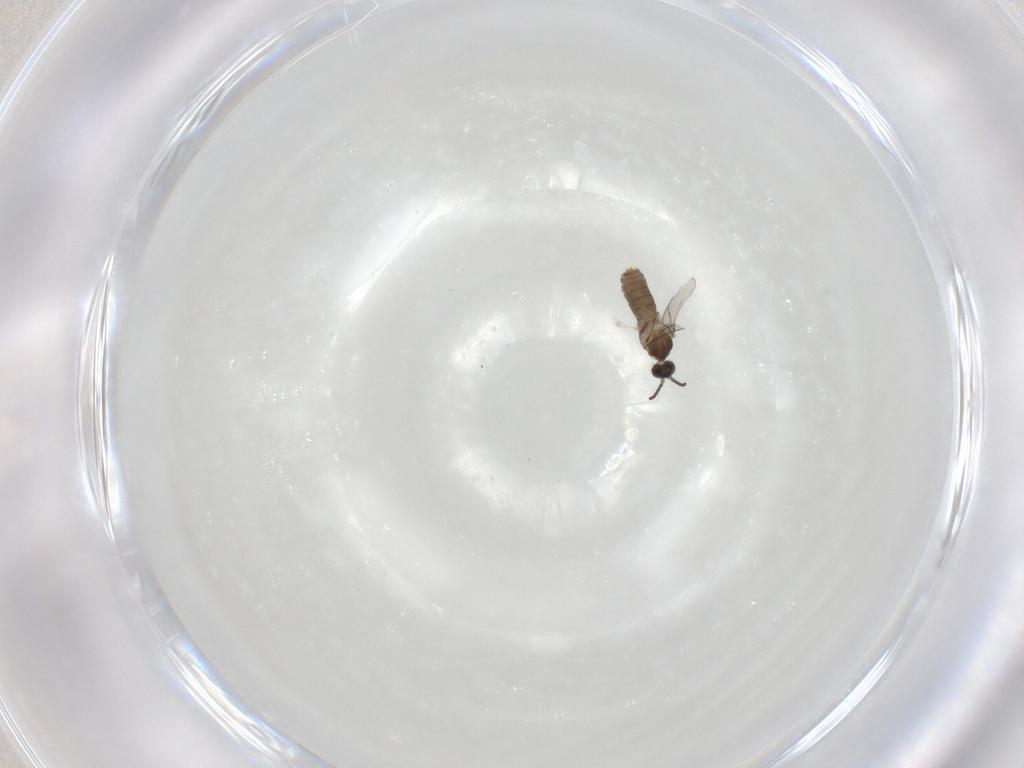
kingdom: Animalia
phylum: Arthropoda
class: Insecta
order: Diptera
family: Cecidomyiidae
